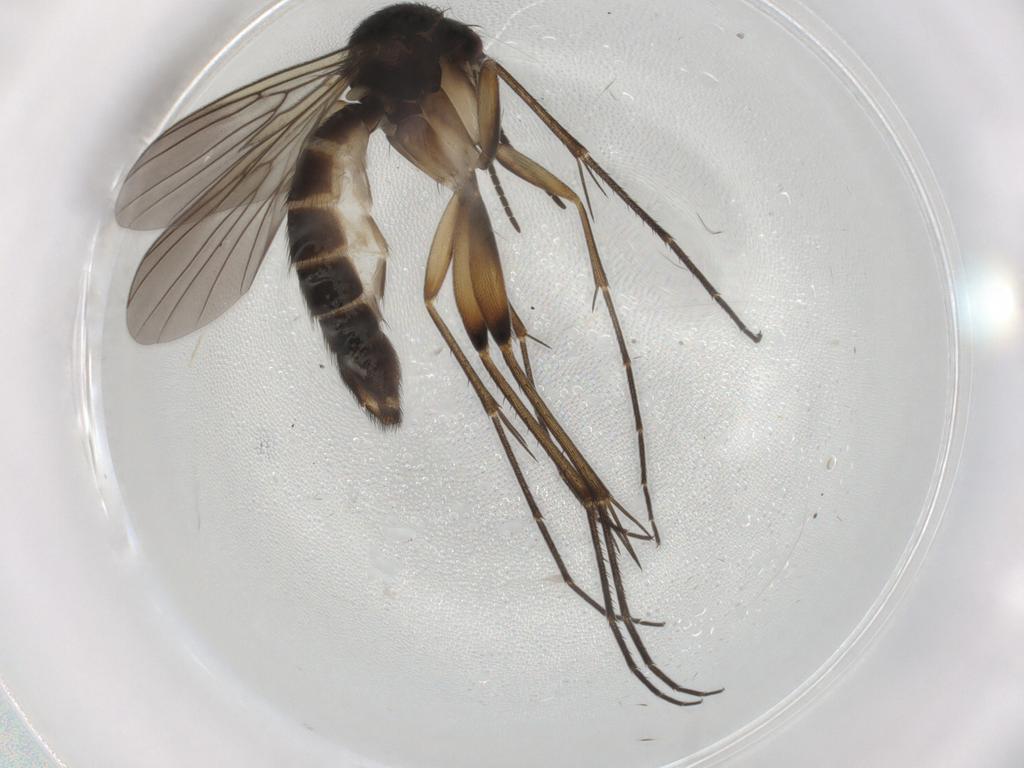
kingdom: Animalia
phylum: Arthropoda
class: Insecta
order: Diptera
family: Mycetophilidae
